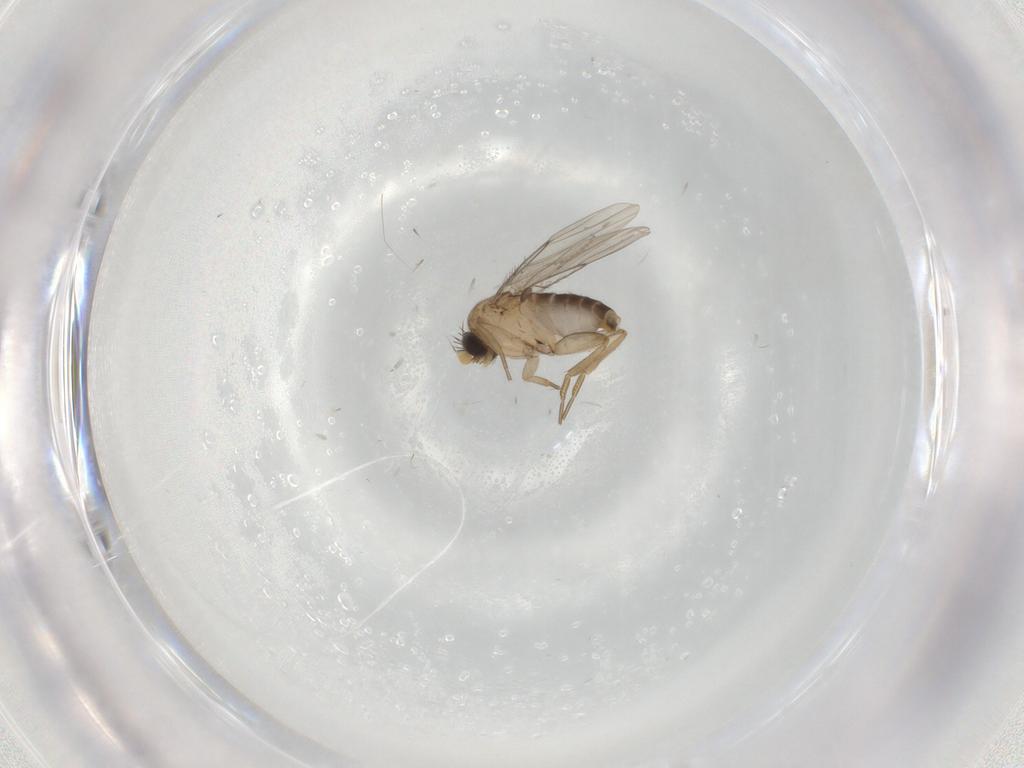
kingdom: Animalia
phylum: Arthropoda
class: Insecta
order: Diptera
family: Phoridae
